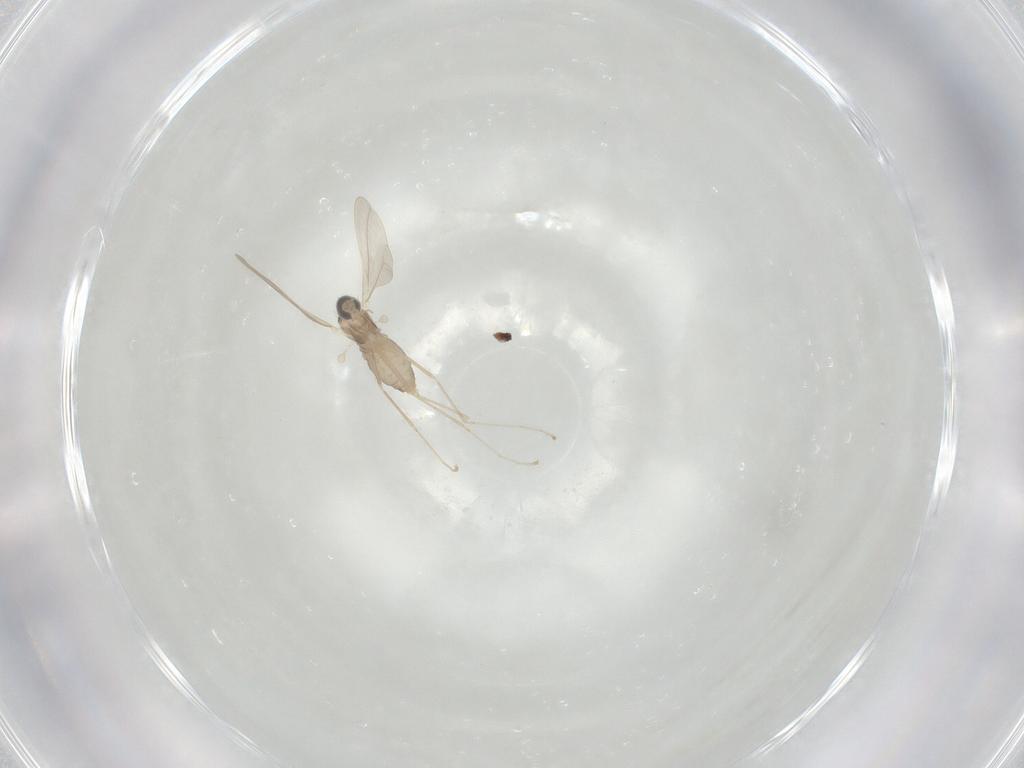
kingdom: Animalia
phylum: Arthropoda
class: Insecta
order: Diptera
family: Cecidomyiidae
